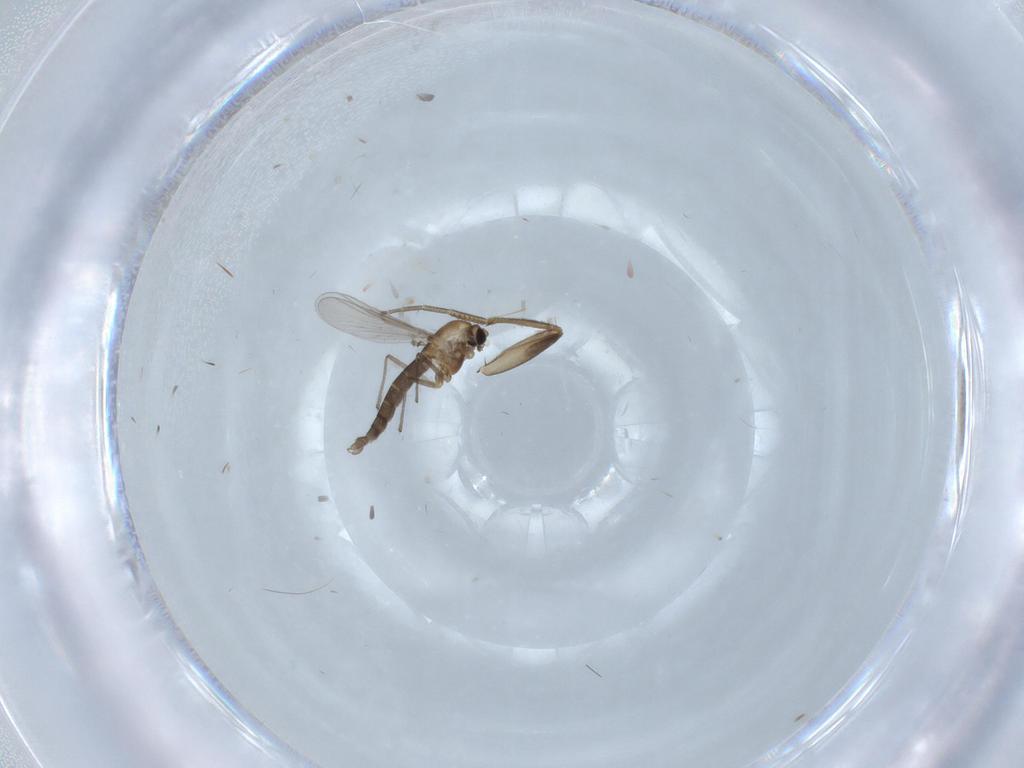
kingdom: Animalia
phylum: Arthropoda
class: Insecta
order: Diptera
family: Chironomidae
